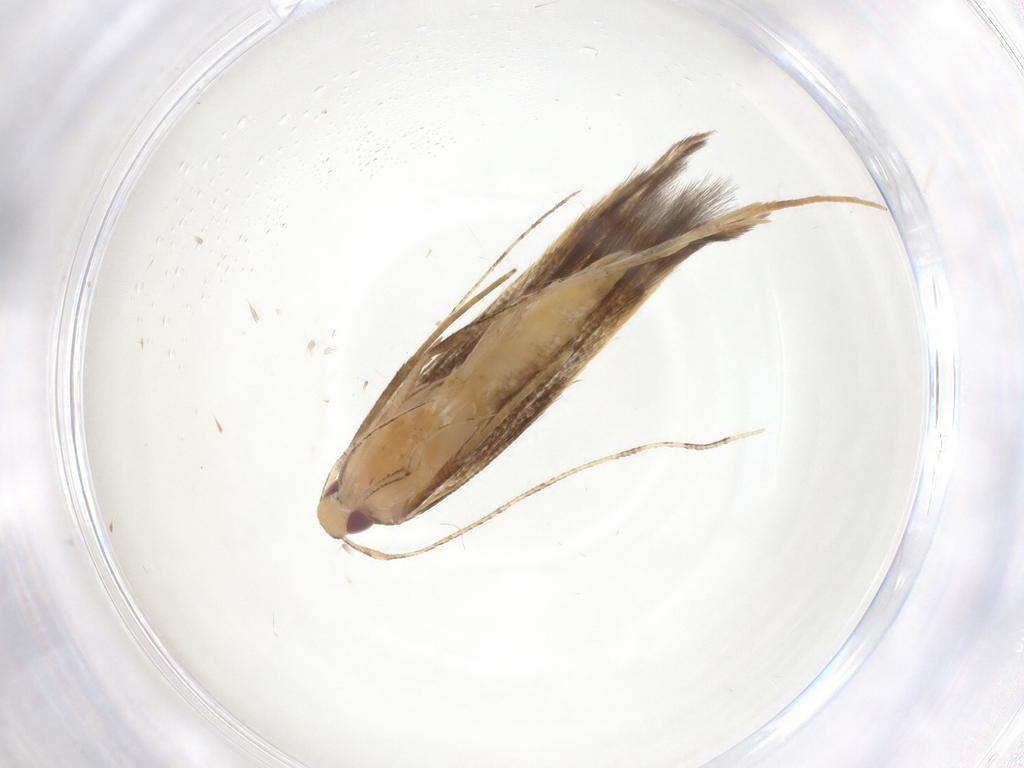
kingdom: Animalia
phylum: Arthropoda
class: Insecta
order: Lepidoptera
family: Cosmopterigidae
